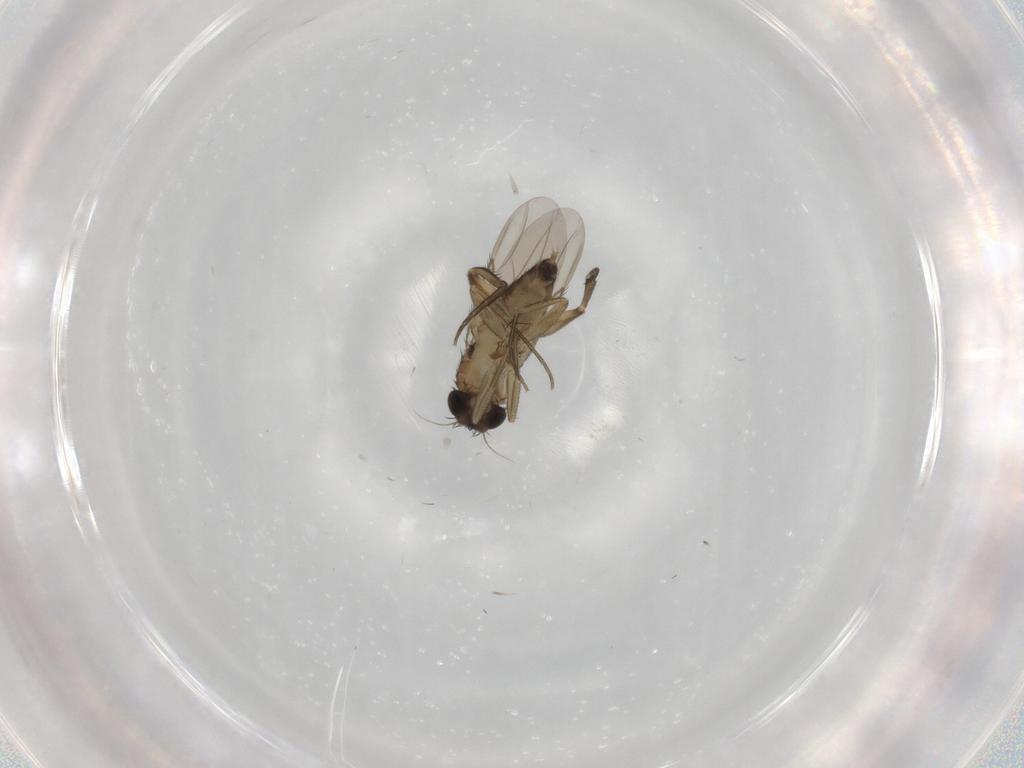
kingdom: Animalia
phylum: Arthropoda
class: Insecta
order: Diptera
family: Phoridae
